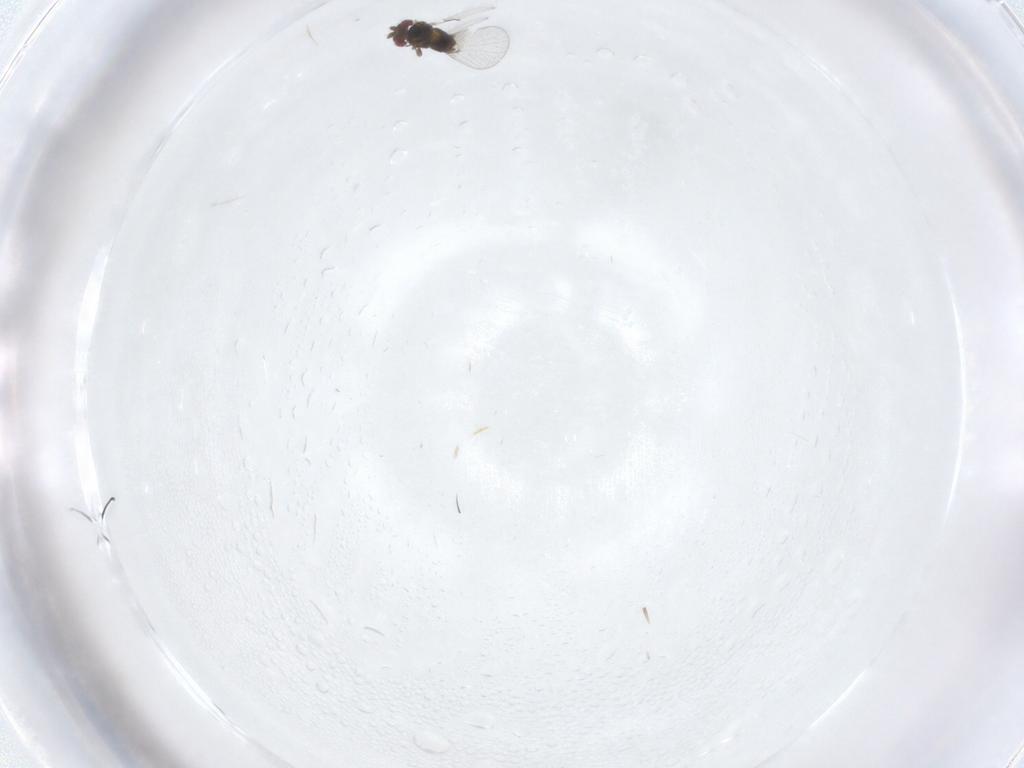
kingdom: Animalia
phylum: Arthropoda
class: Insecta
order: Hymenoptera
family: Trichogrammatidae
